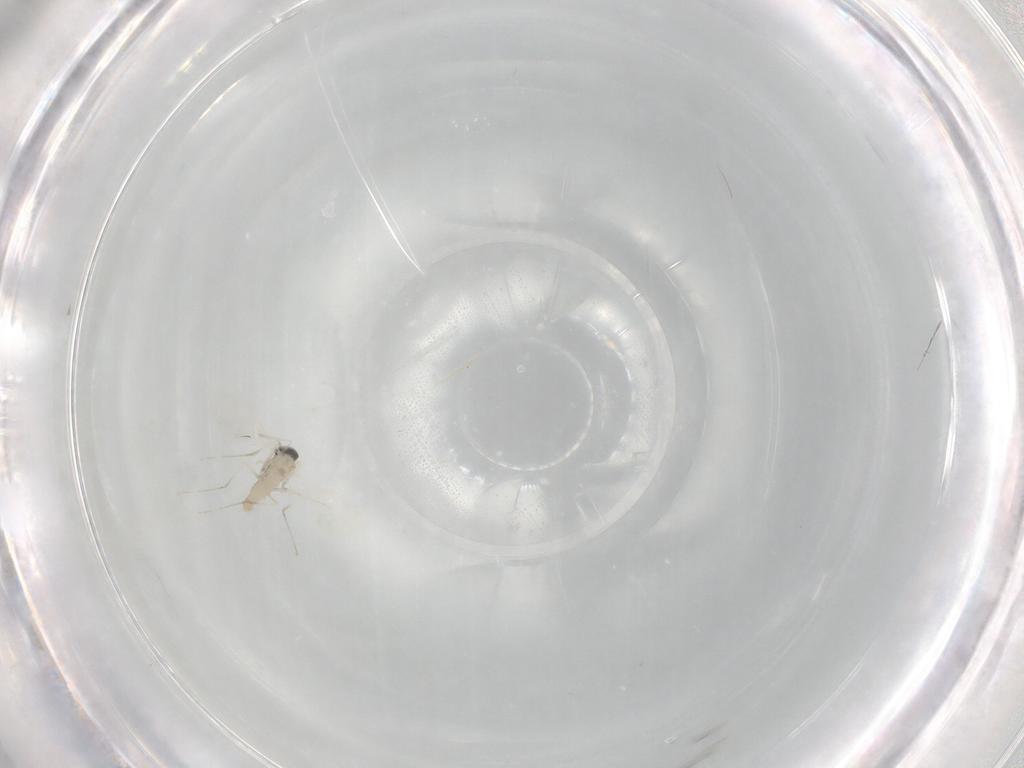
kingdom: Animalia
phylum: Arthropoda
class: Insecta
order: Diptera
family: Cecidomyiidae
